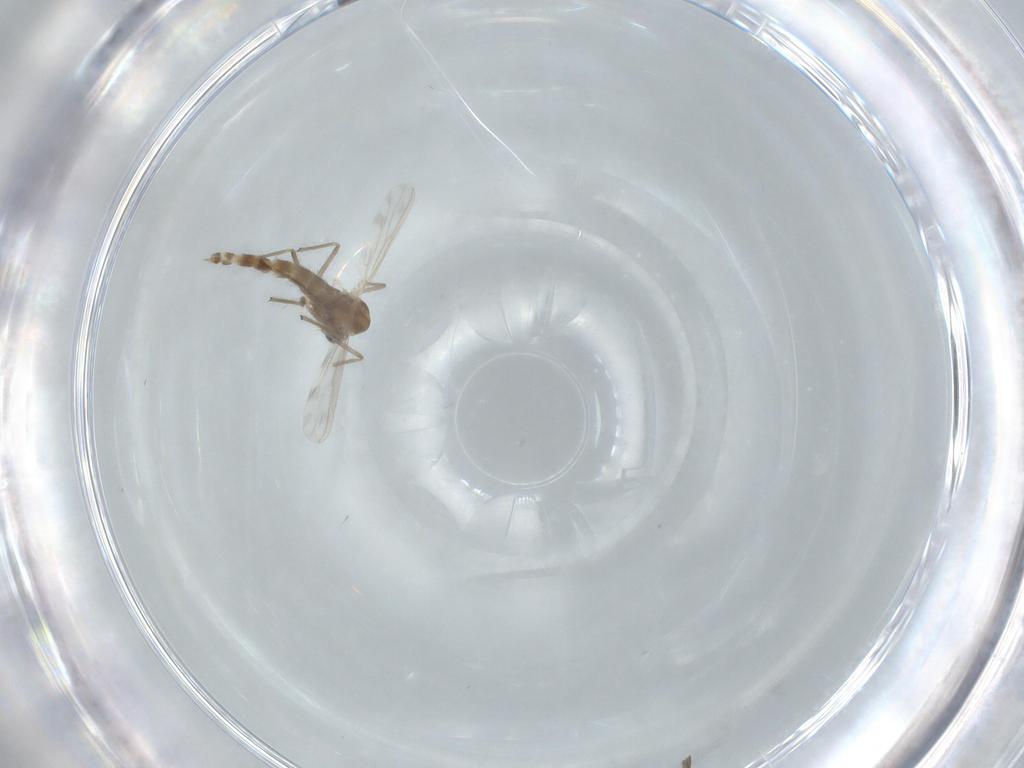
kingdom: Animalia
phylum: Arthropoda
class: Insecta
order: Diptera
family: Chironomidae
